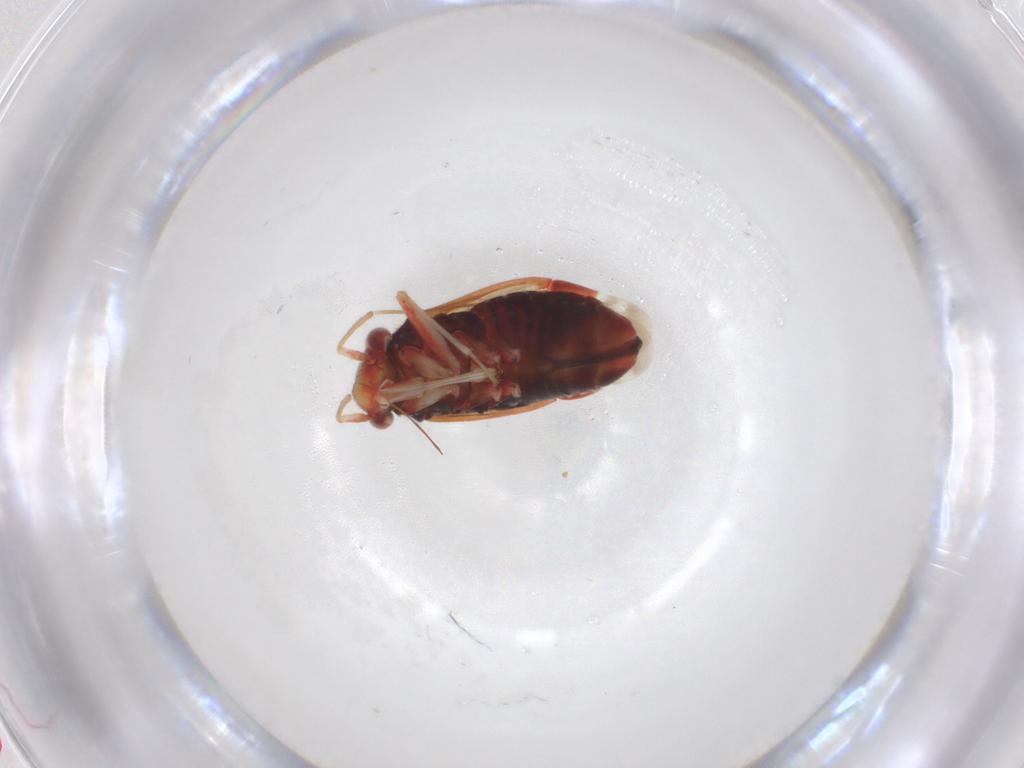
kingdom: Animalia
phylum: Arthropoda
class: Insecta
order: Hemiptera
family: Miridae
